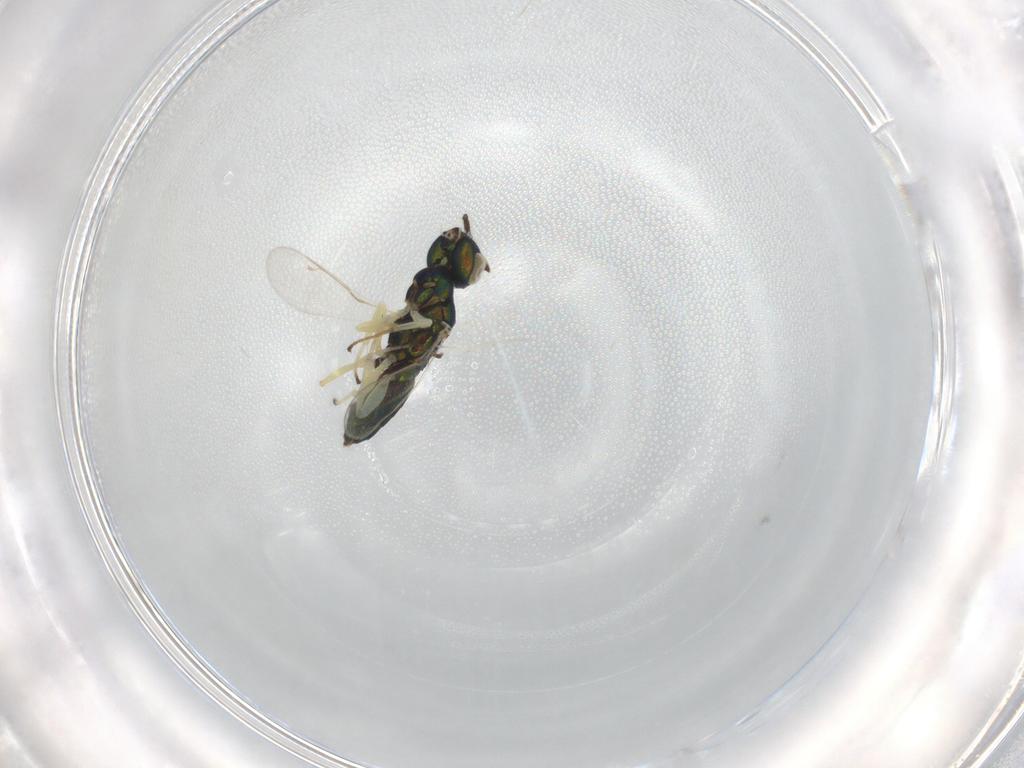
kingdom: Animalia
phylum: Arthropoda
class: Insecta
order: Hymenoptera
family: Pteromalidae
